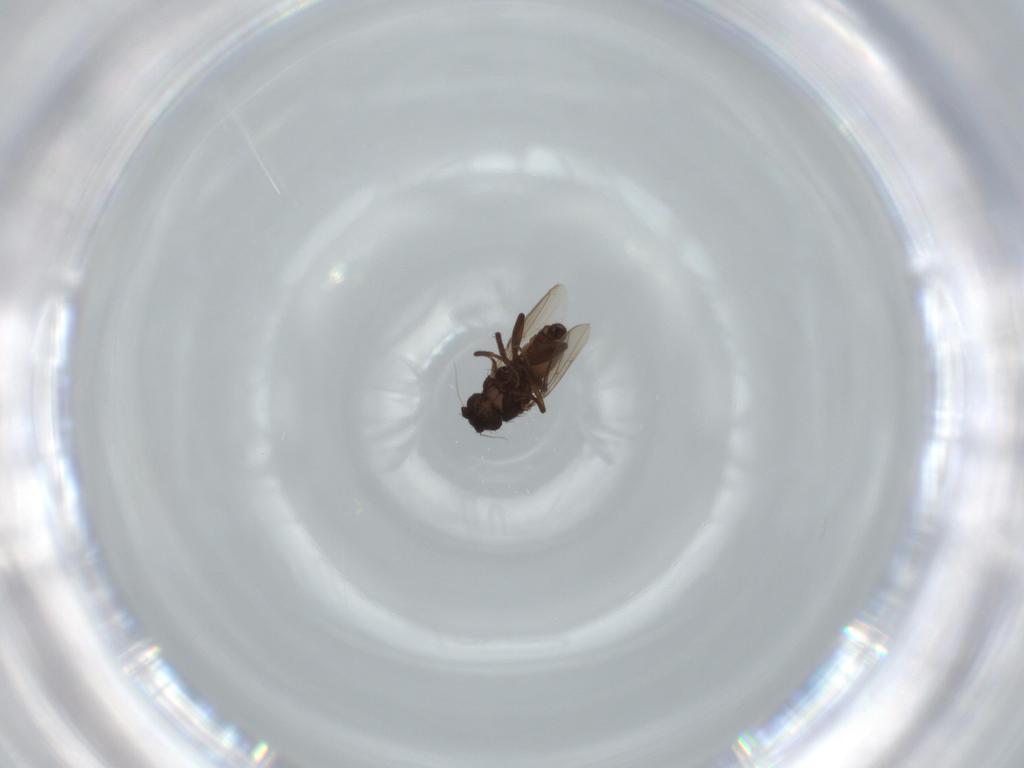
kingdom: Animalia
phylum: Arthropoda
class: Insecta
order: Diptera
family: Sphaeroceridae
